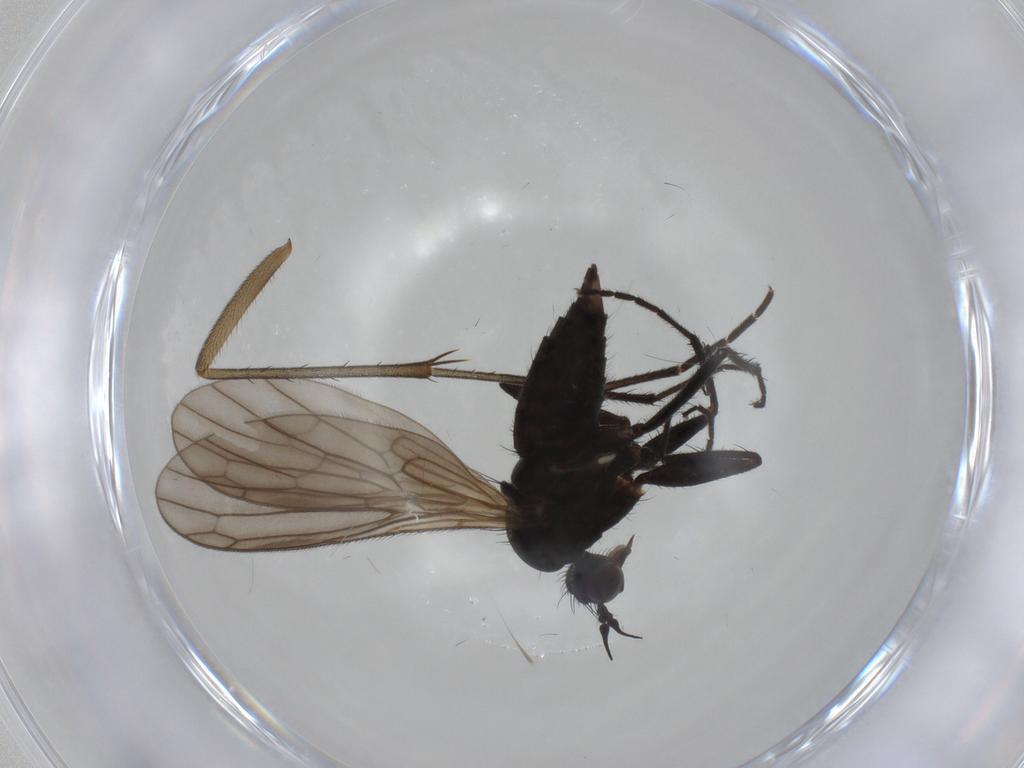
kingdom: Animalia
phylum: Arthropoda
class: Insecta
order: Diptera
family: Empididae
